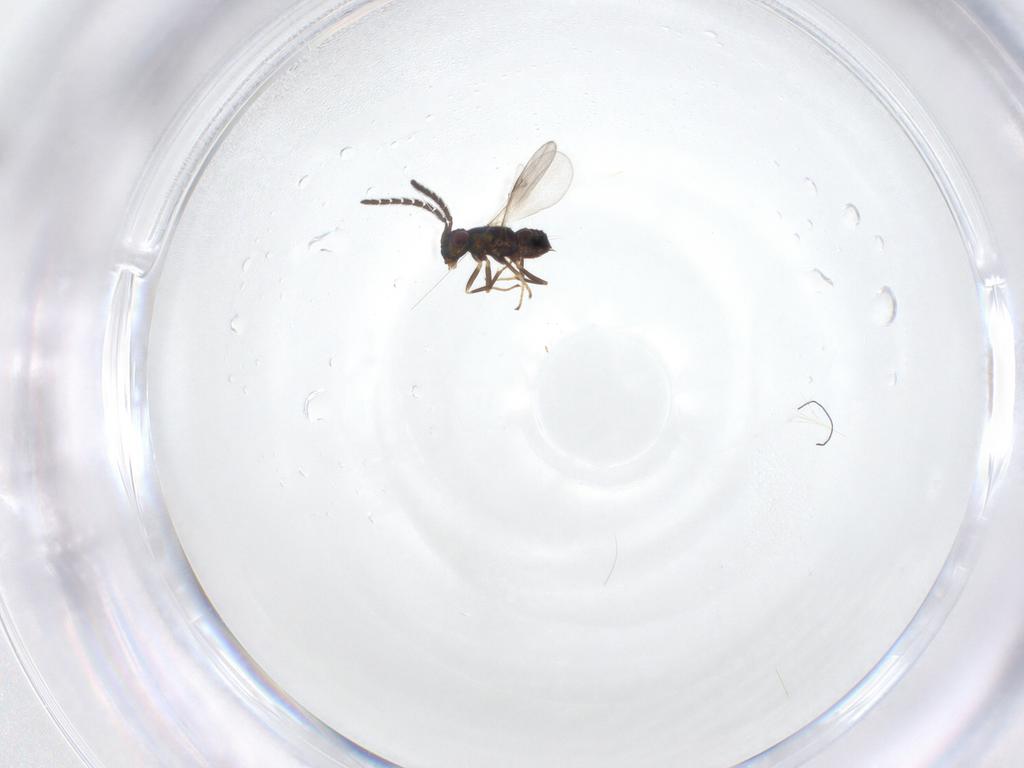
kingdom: Animalia
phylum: Arthropoda
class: Insecta
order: Hymenoptera
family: Encyrtidae
